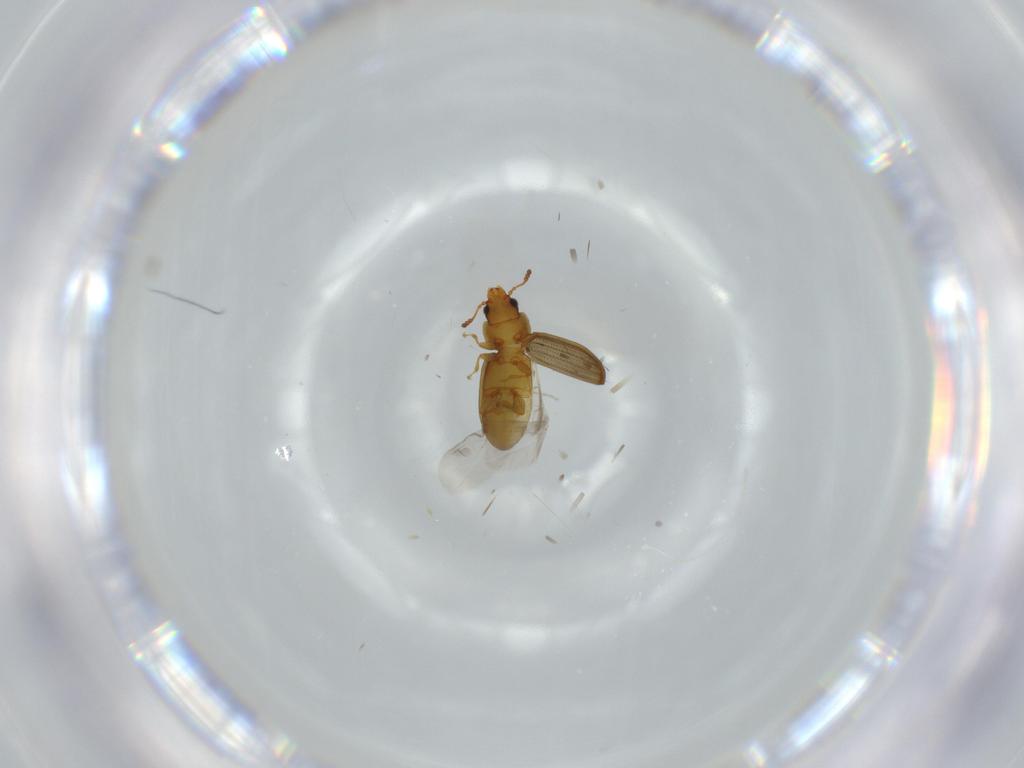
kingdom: Animalia
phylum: Arthropoda
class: Insecta
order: Coleoptera
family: Laemophloeidae
